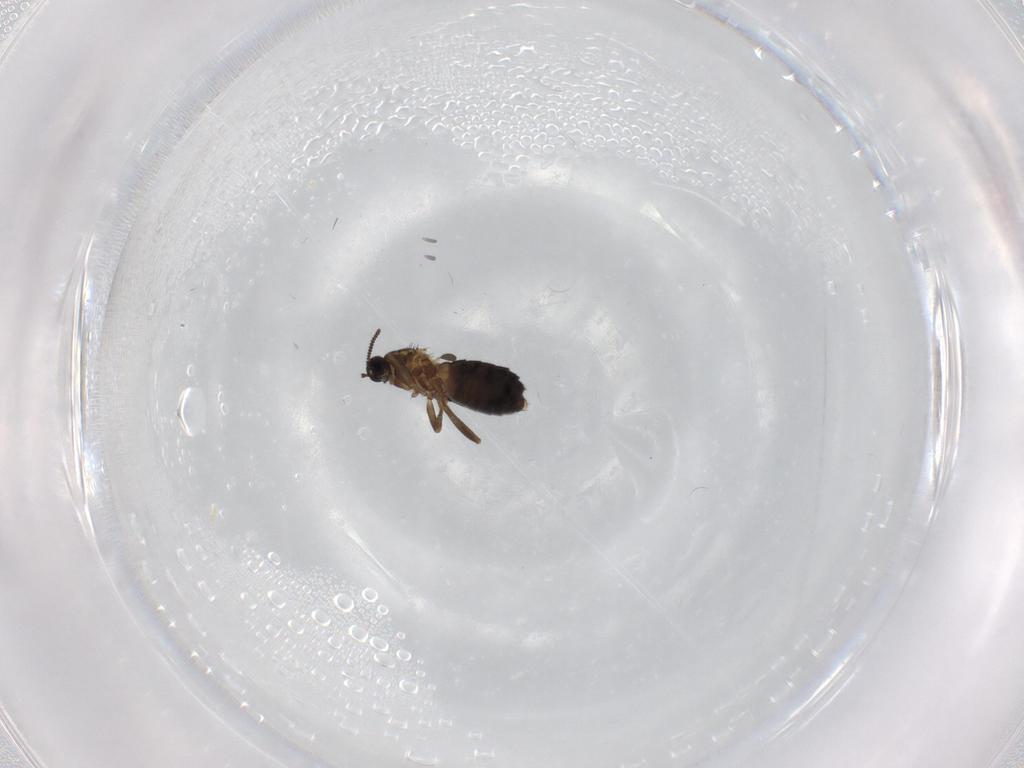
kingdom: Animalia
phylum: Arthropoda
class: Insecta
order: Diptera
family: Scatopsidae
